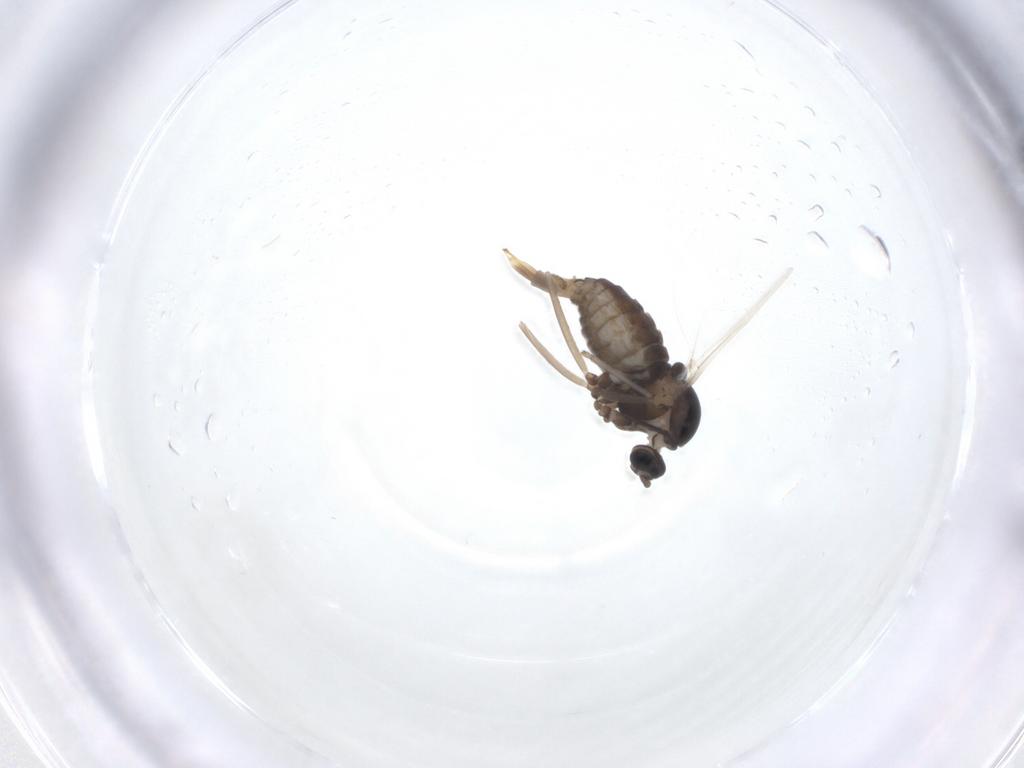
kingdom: Animalia
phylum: Arthropoda
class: Insecta
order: Diptera
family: Cecidomyiidae
